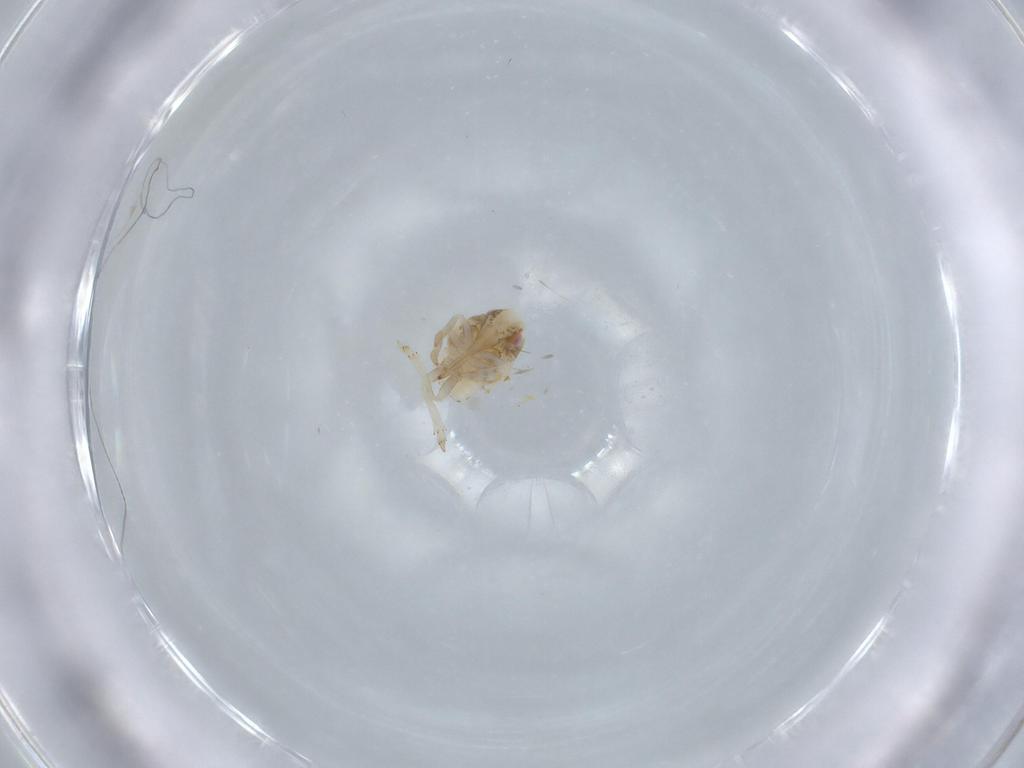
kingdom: Animalia
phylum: Arthropoda
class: Insecta
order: Hemiptera
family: Acanaloniidae
